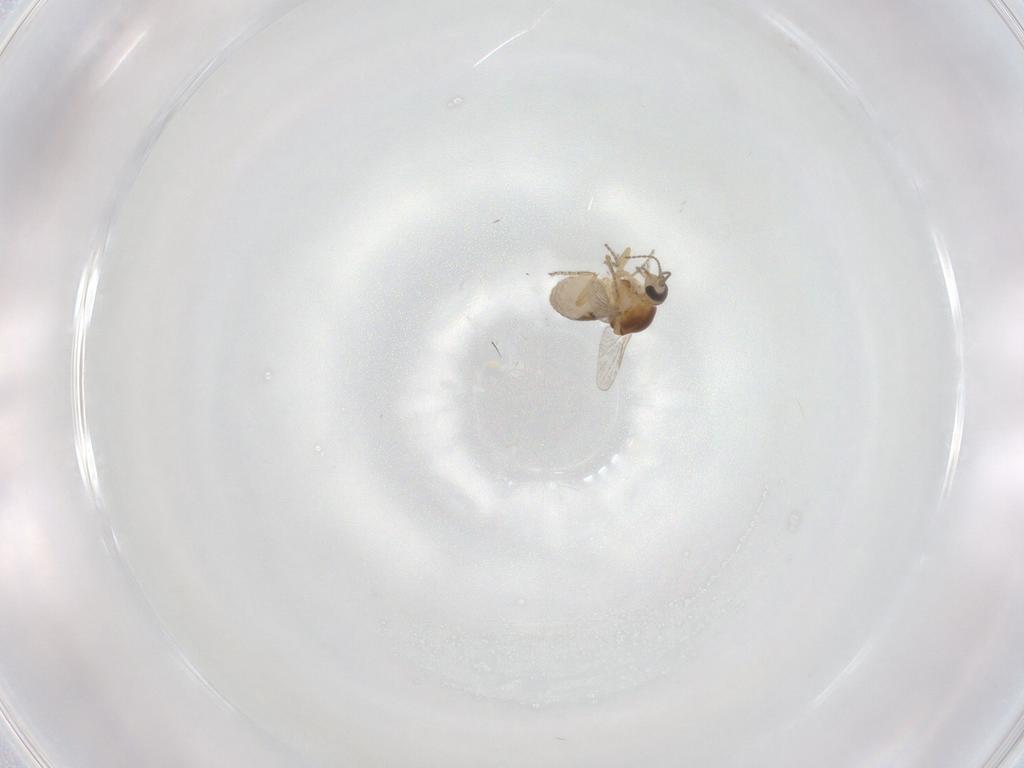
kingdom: Animalia
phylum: Arthropoda
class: Insecta
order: Diptera
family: Ceratopogonidae
